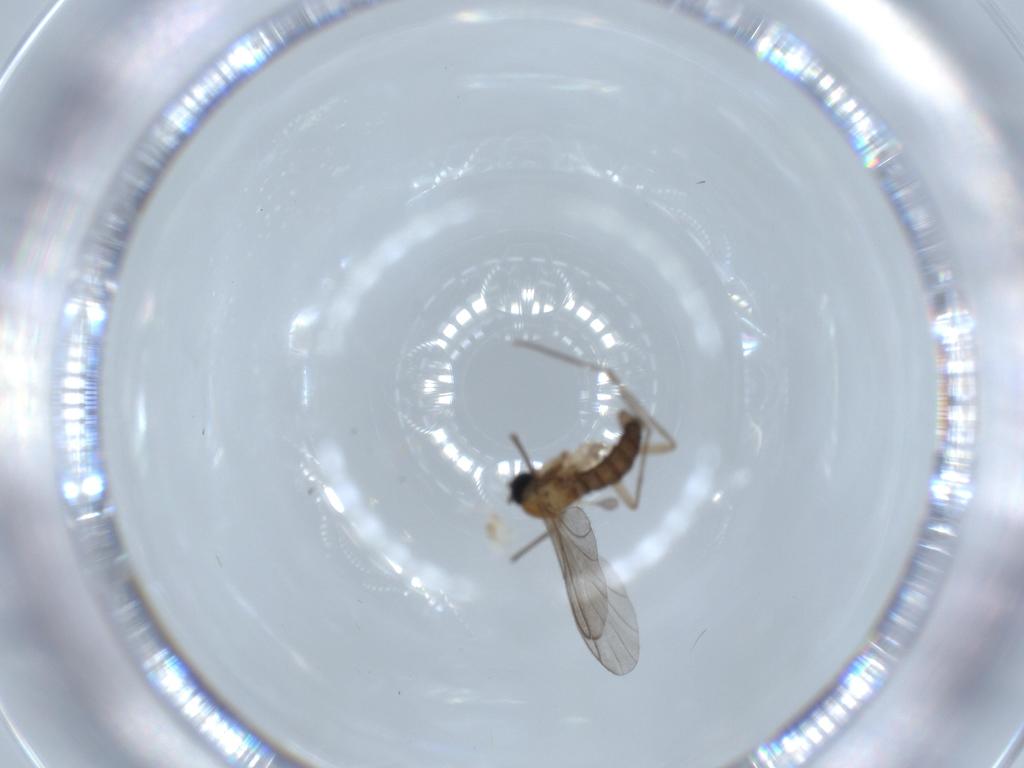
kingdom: Animalia
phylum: Arthropoda
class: Insecta
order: Diptera
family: Sciaridae
